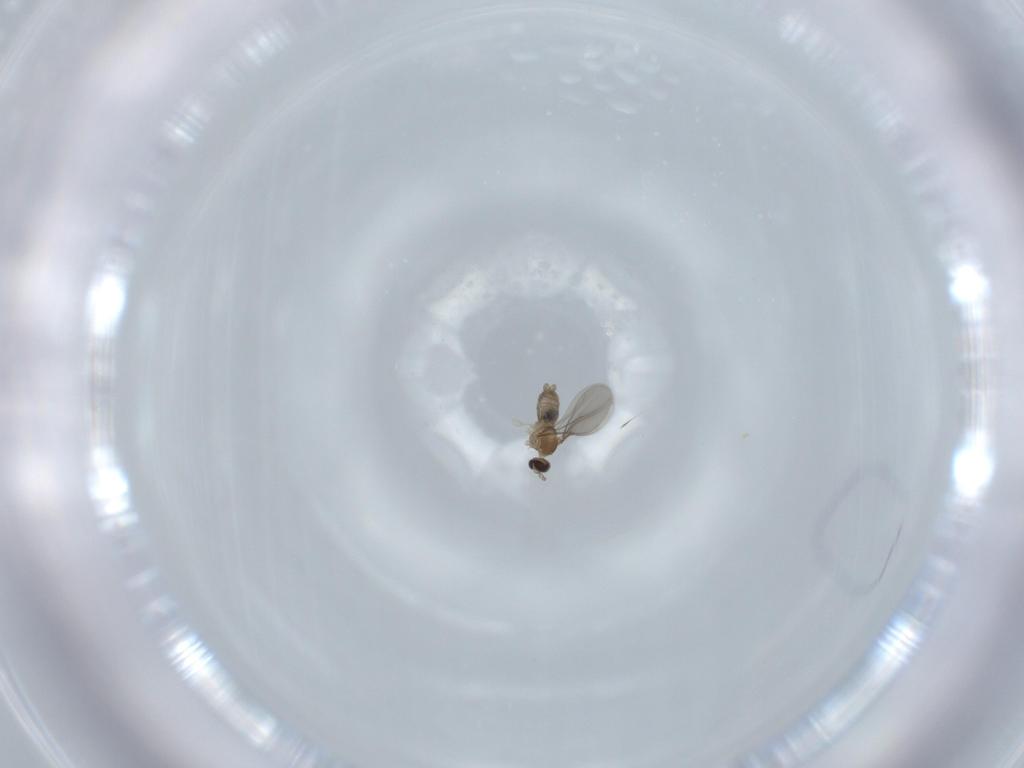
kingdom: Animalia
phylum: Arthropoda
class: Insecta
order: Diptera
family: Cecidomyiidae
